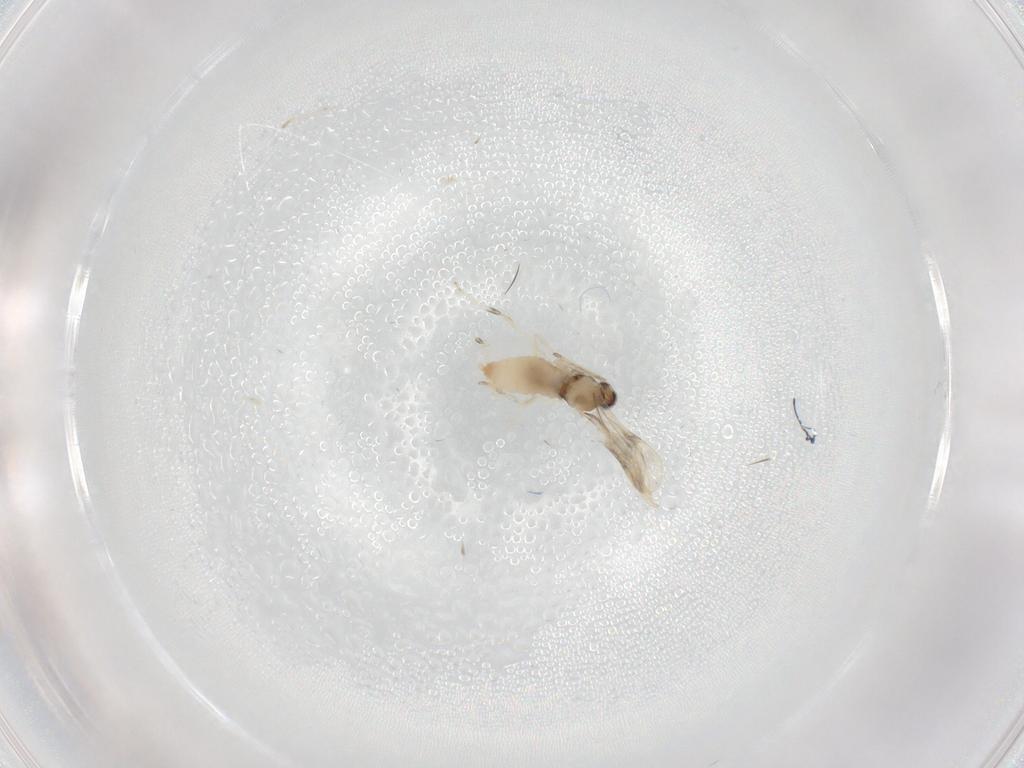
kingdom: Animalia
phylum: Arthropoda
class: Insecta
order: Diptera
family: Cecidomyiidae
